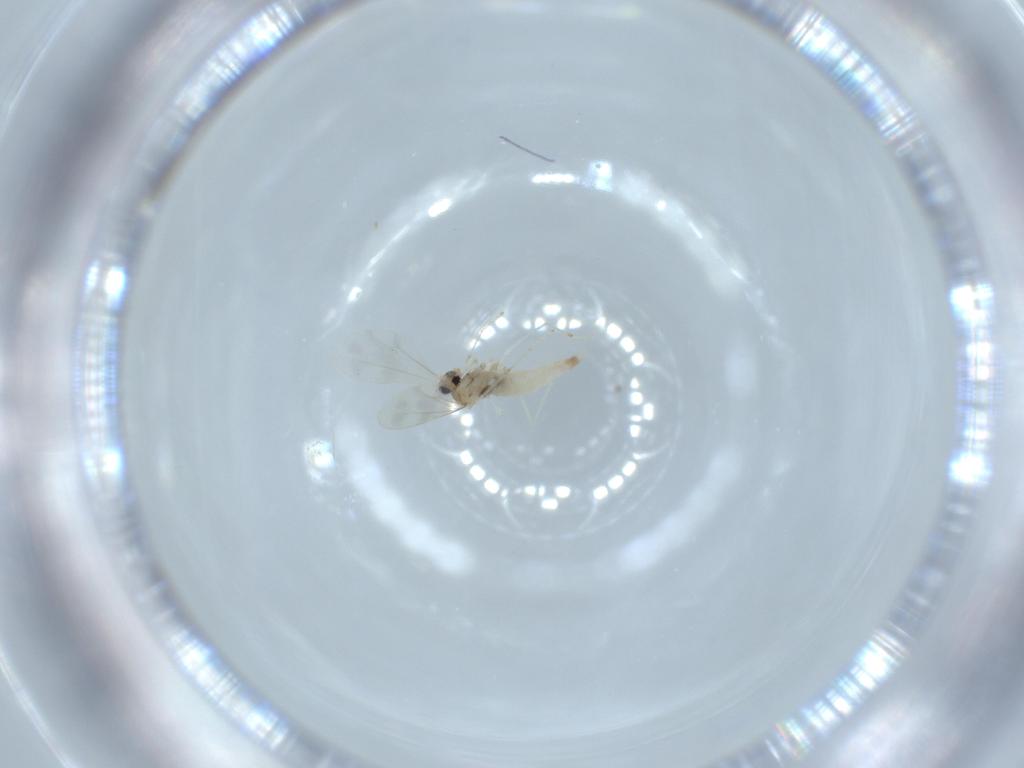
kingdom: Animalia
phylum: Arthropoda
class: Insecta
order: Diptera
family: Cecidomyiidae
